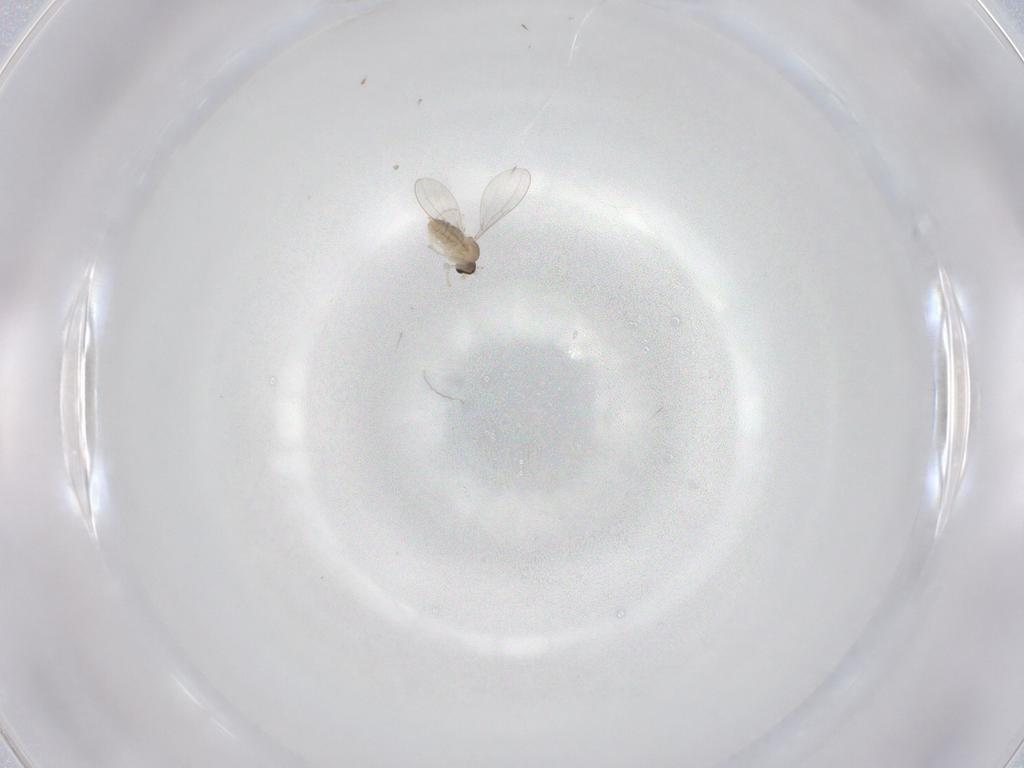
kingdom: Animalia
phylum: Arthropoda
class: Insecta
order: Diptera
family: Cecidomyiidae
